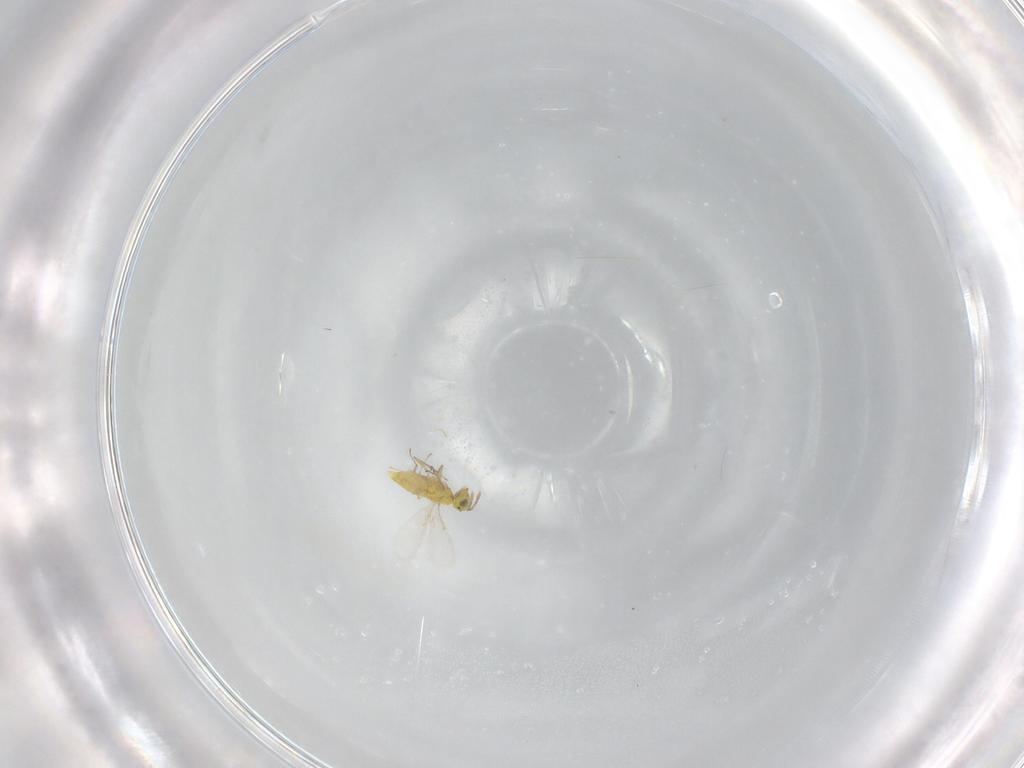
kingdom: Animalia
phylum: Arthropoda
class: Insecta
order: Hymenoptera
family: Aphelinidae
